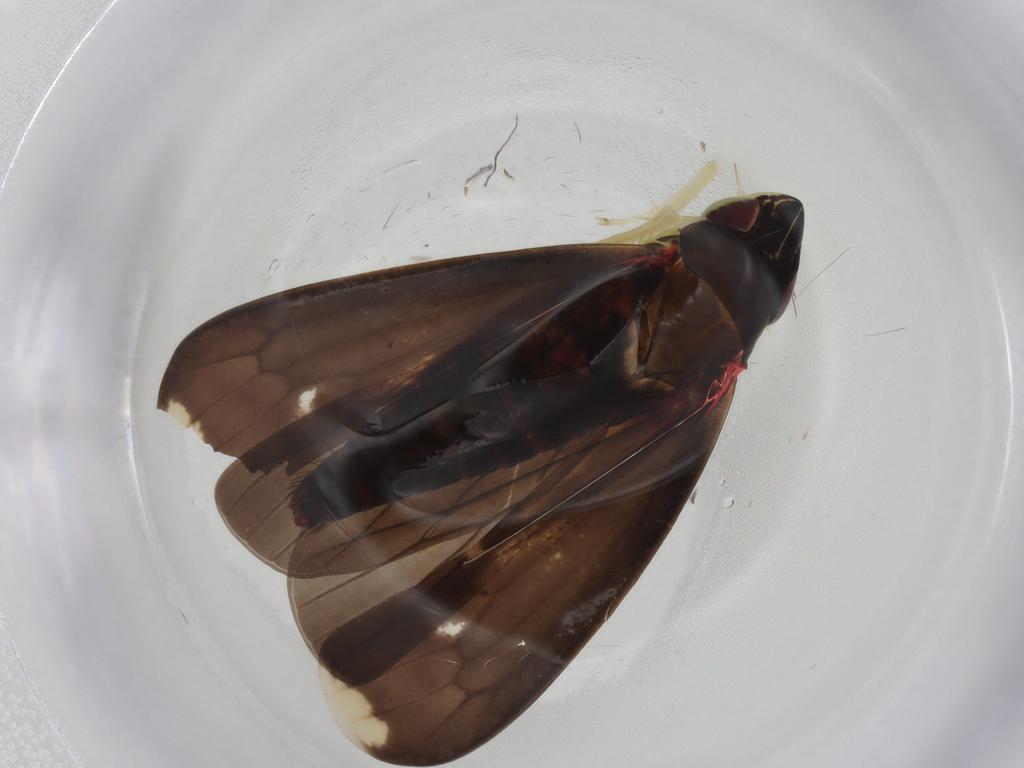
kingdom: Animalia
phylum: Arthropoda
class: Insecta
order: Hemiptera
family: Cicadellidae
